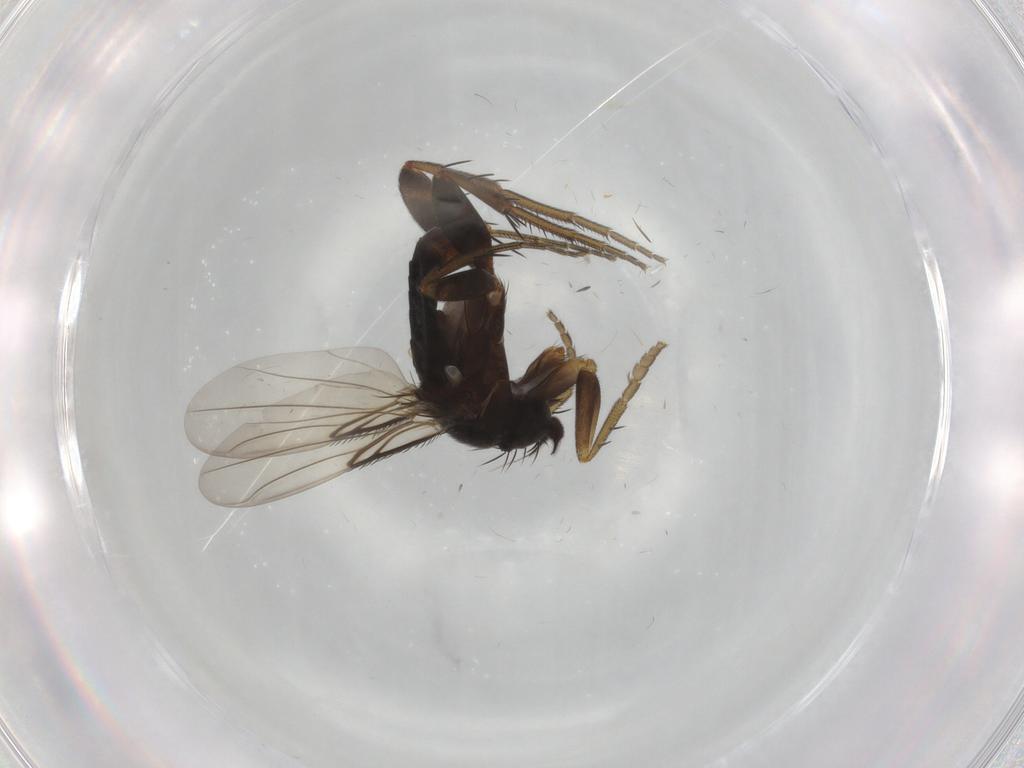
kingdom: Animalia
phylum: Arthropoda
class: Insecta
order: Diptera
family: Phoridae
